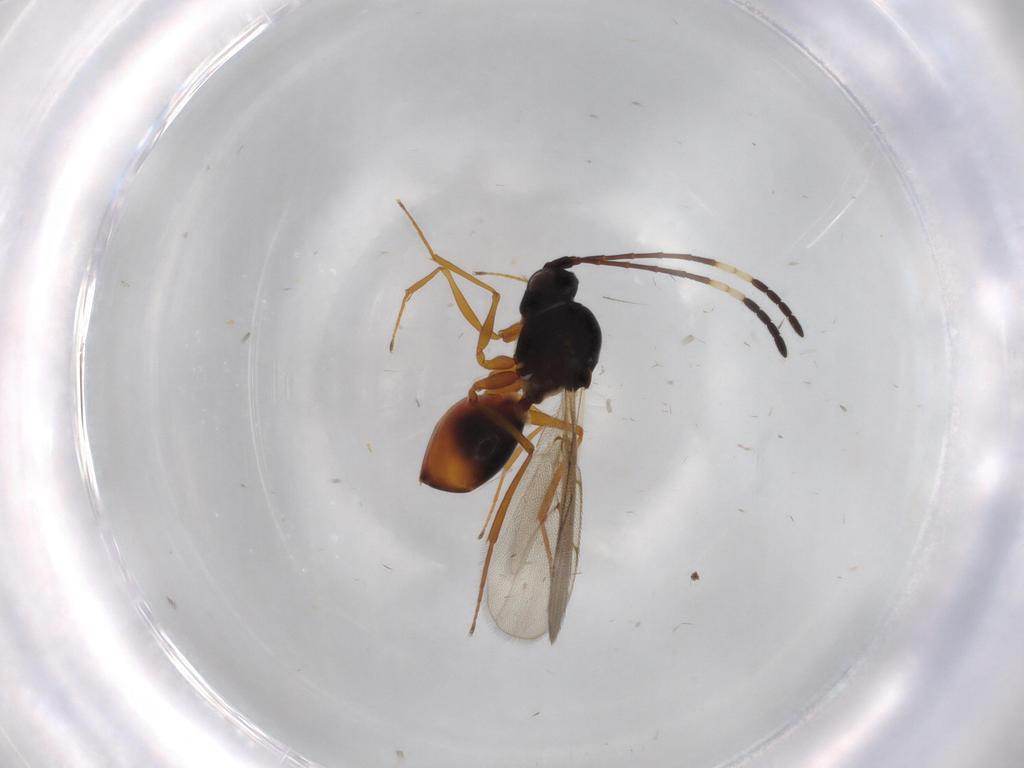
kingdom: Animalia
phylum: Arthropoda
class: Insecta
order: Hymenoptera
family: Figitidae
